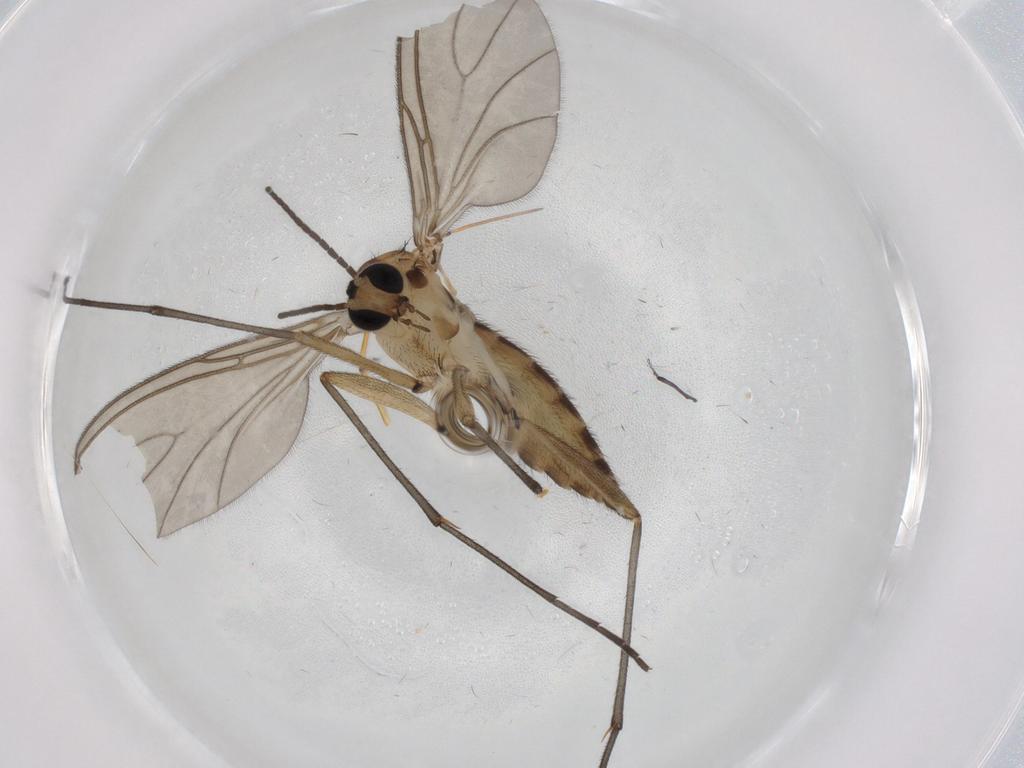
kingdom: Animalia
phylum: Arthropoda
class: Insecta
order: Diptera
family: Sciaridae
